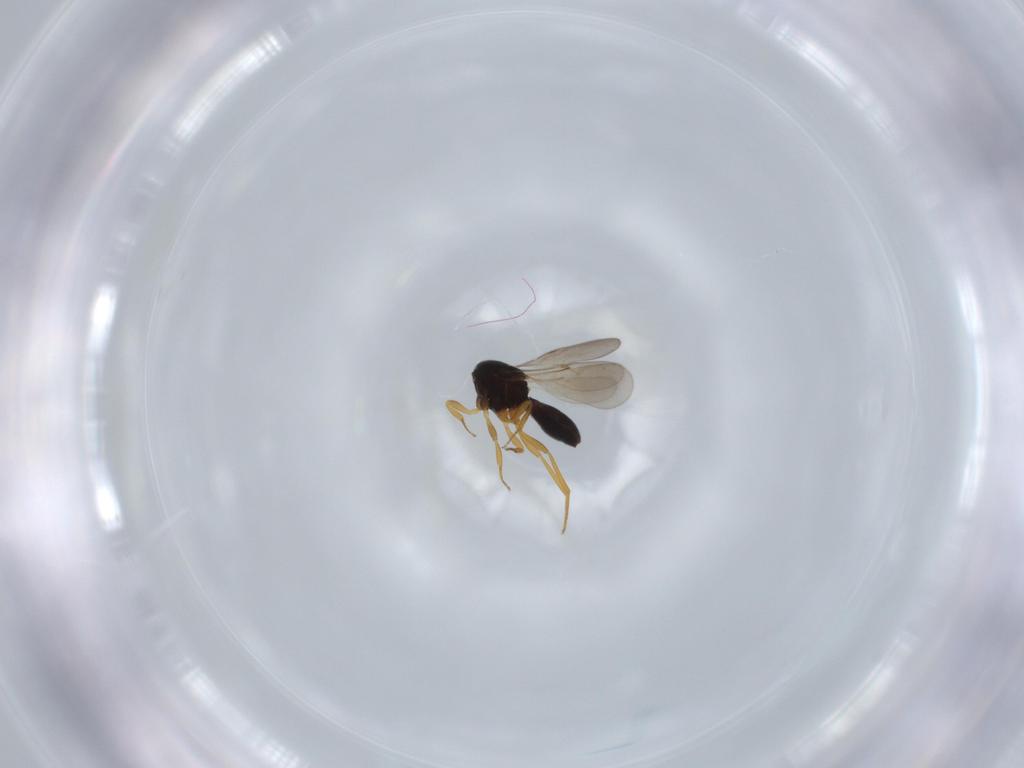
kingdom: Animalia
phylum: Arthropoda
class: Insecta
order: Hymenoptera
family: Scelionidae
